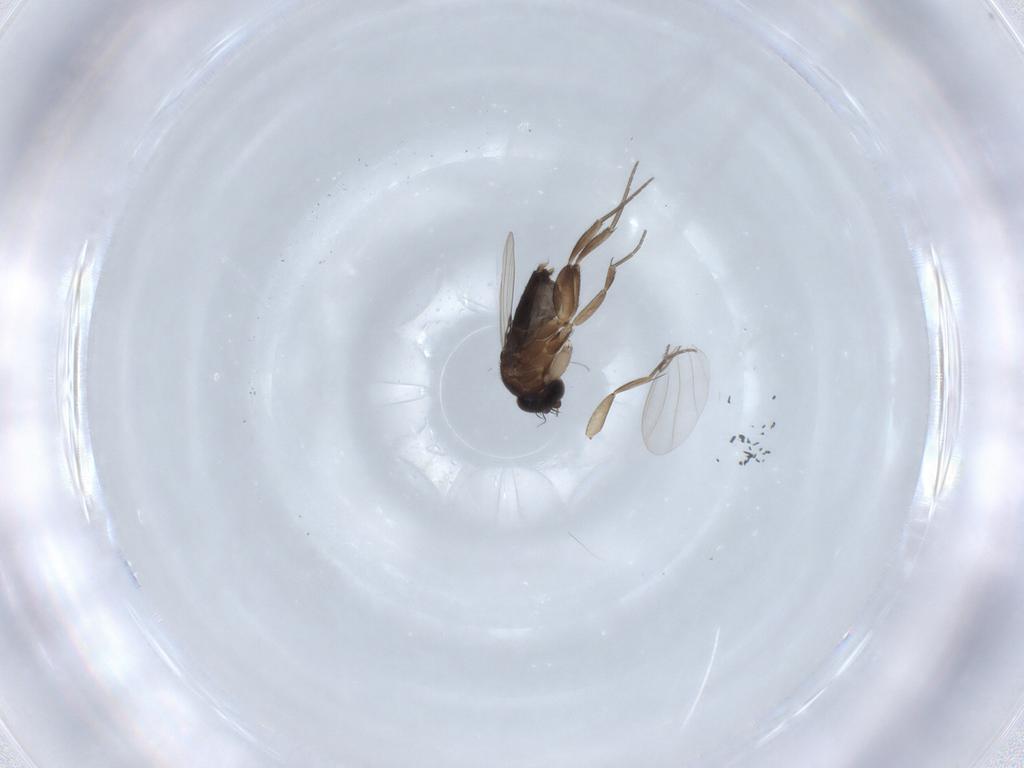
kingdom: Animalia
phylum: Arthropoda
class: Insecta
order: Diptera
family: Phoridae
